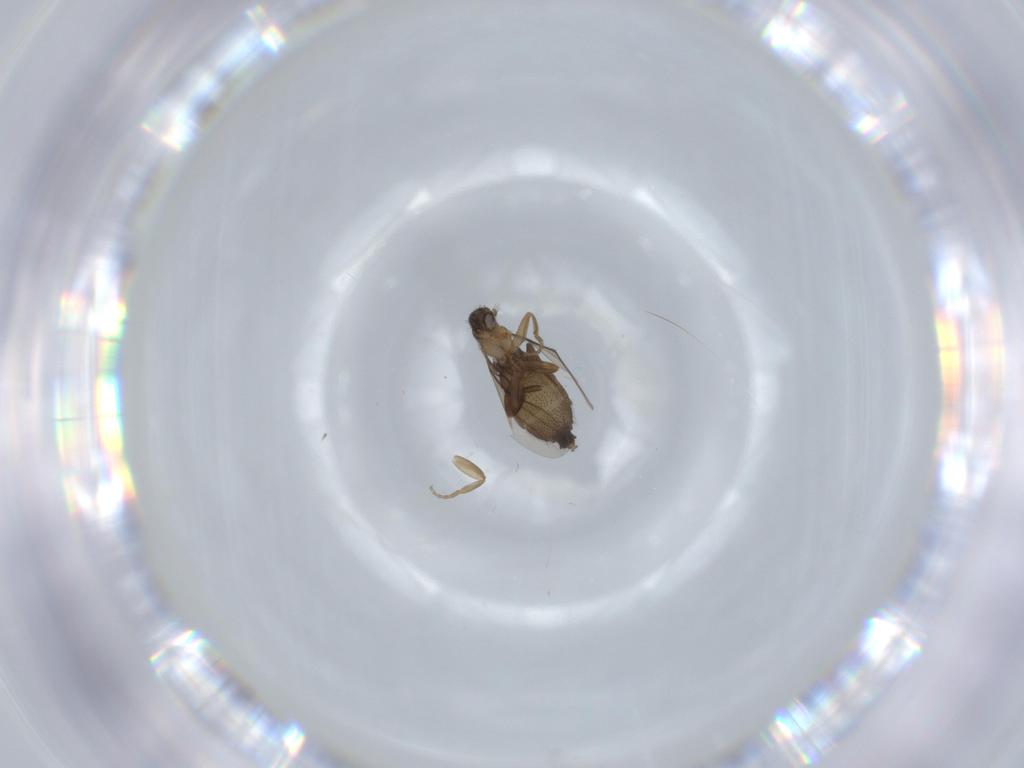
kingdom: Animalia
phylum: Arthropoda
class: Insecta
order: Diptera
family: Phoridae
